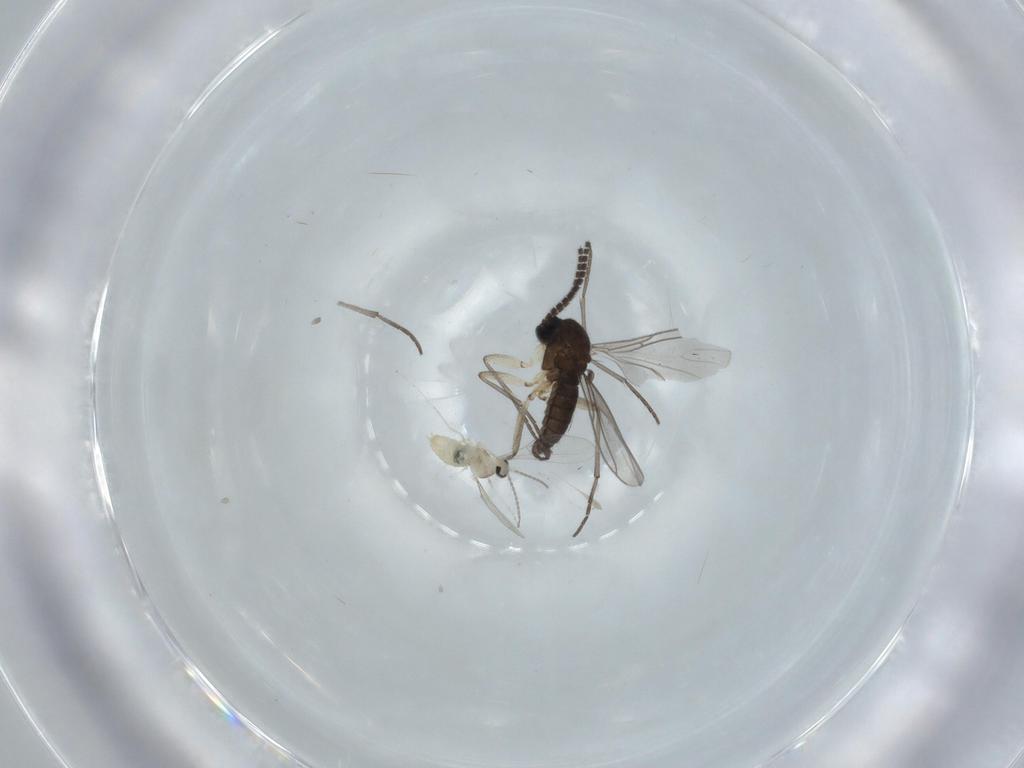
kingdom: Animalia
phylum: Arthropoda
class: Insecta
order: Diptera
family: Sciaridae
